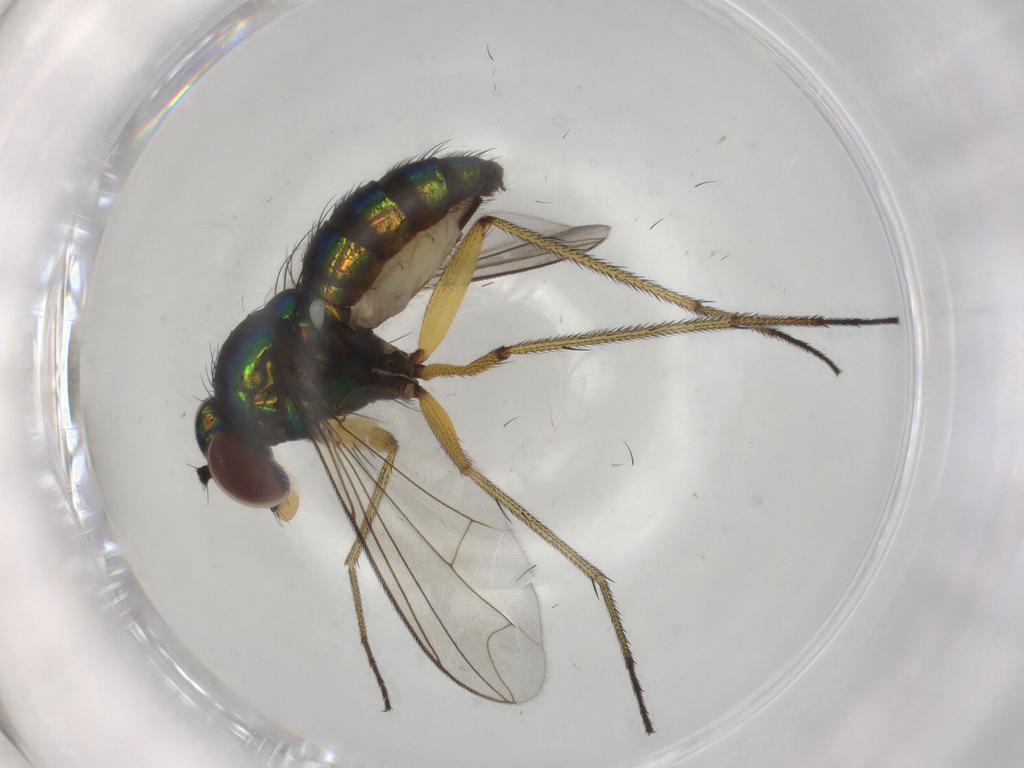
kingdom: Animalia
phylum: Arthropoda
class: Insecta
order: Diptera
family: Dolichopodidae
